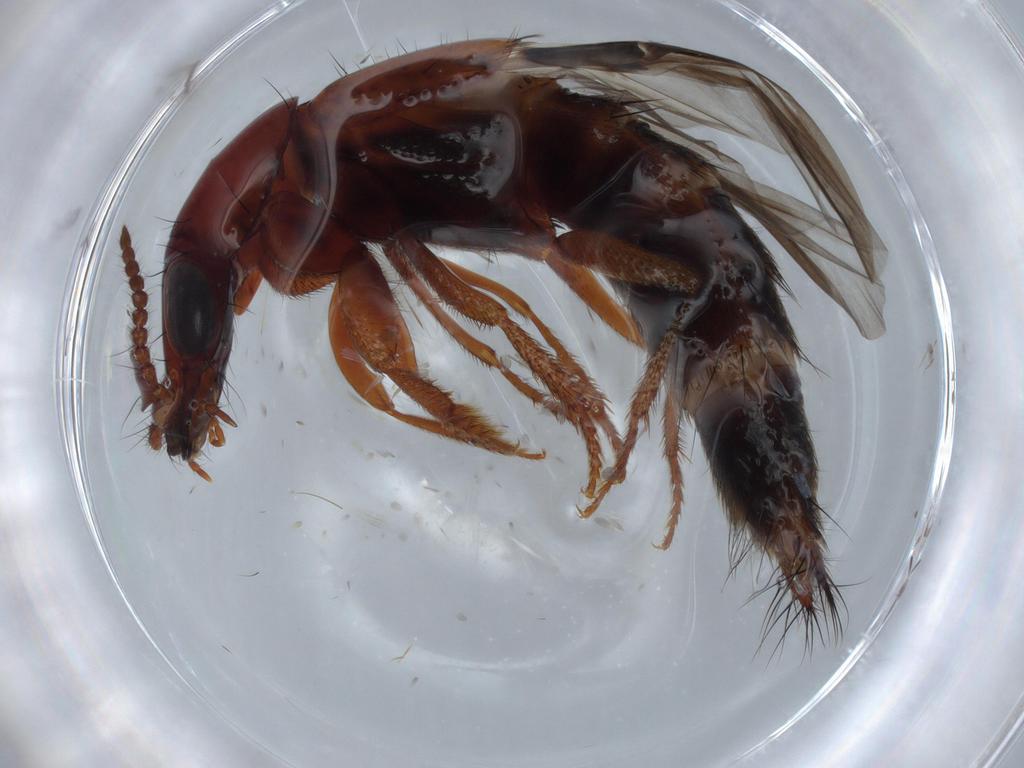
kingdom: Animalia
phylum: Arthropoda
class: Insecta
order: Coleoptera
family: Staphylinidae
